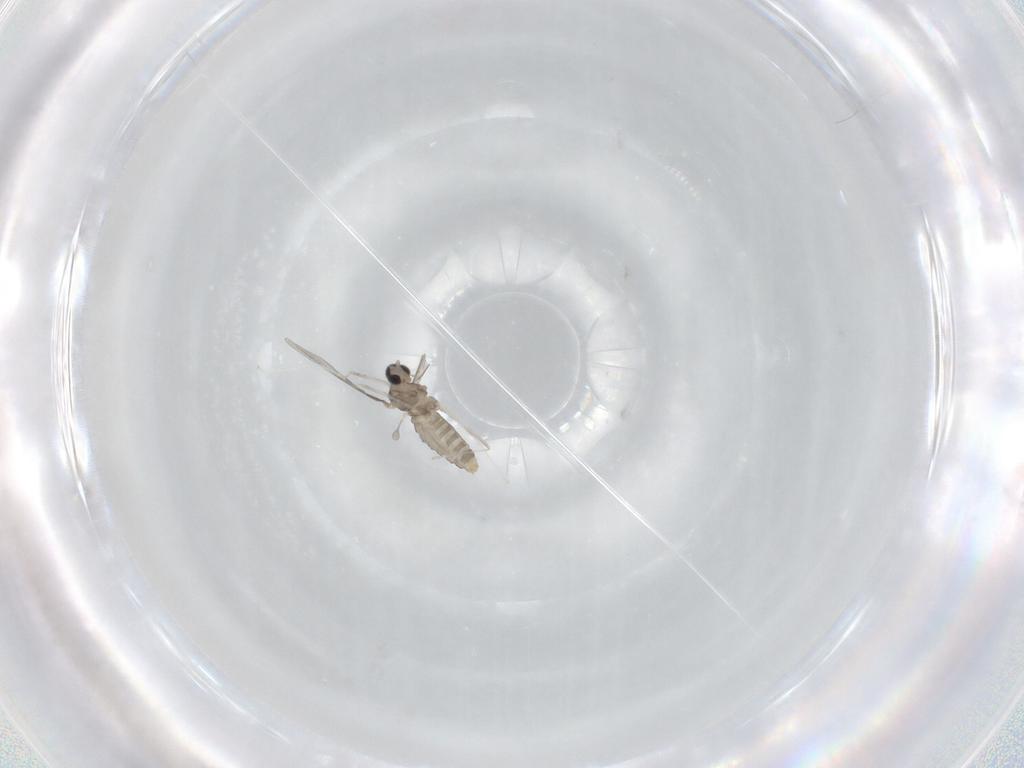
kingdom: Animalia
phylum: Arthropoda
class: Insecta
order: Diptera
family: Cecidomyiidae
